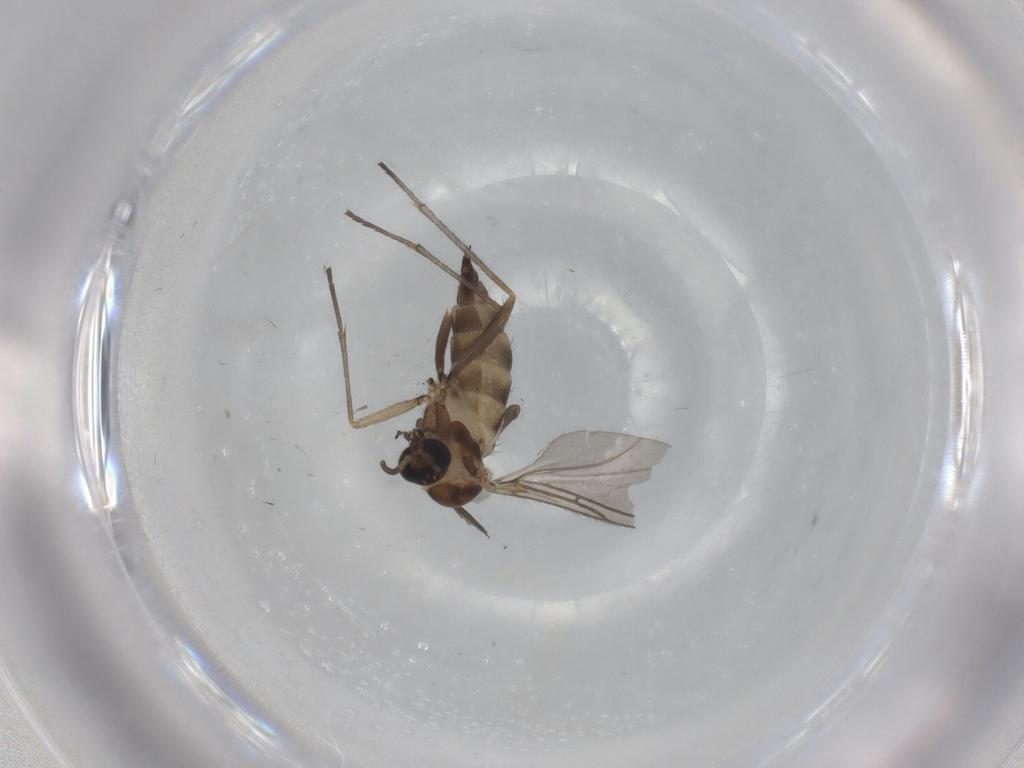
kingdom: Animalia
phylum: Arthropoda
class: Insecta
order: Diptera
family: Sciaridae
